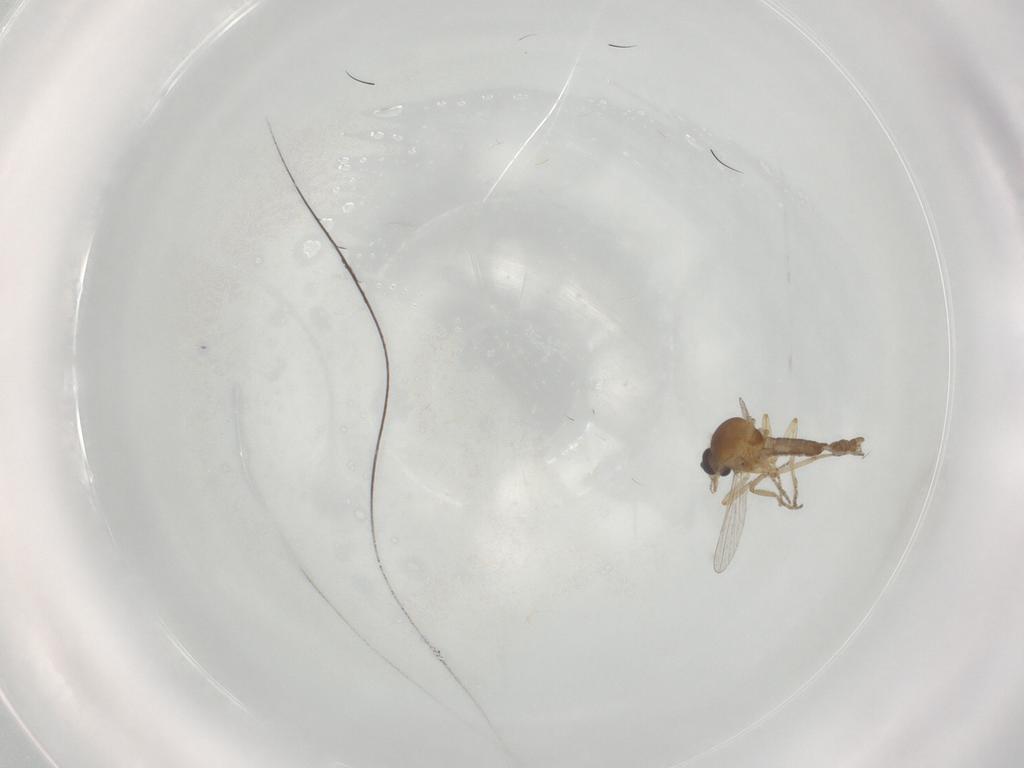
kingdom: Animalia
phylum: Arthropoda
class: Insecta
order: Diptera
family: Ceratopogonidae
